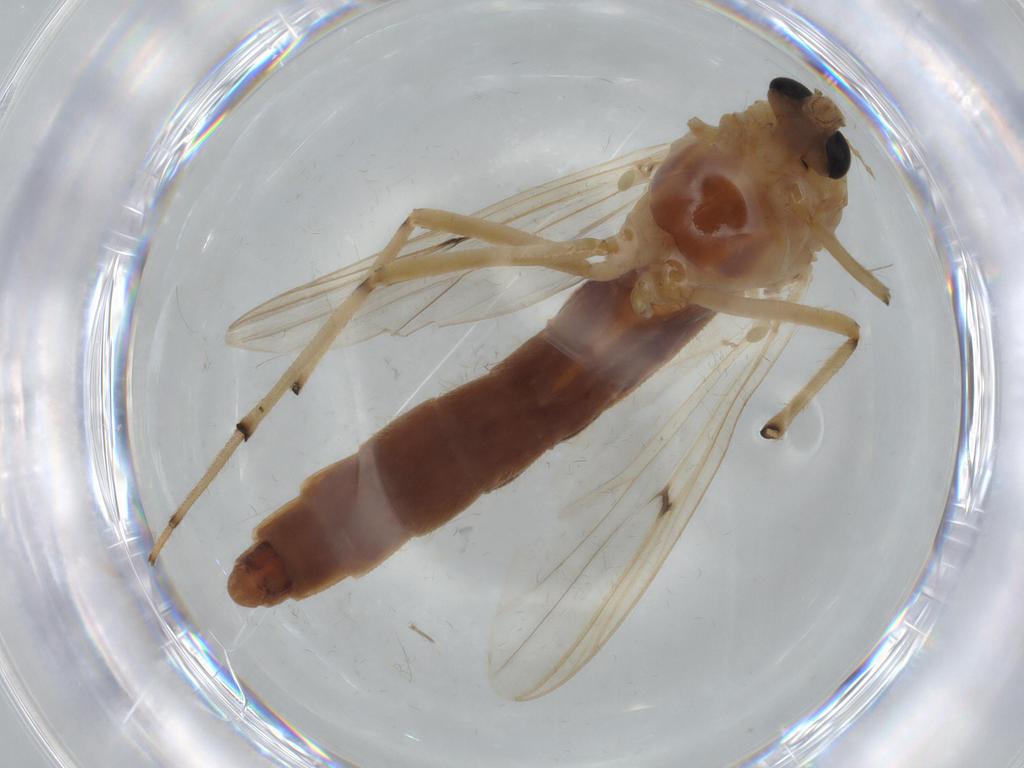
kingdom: Animalia
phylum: Arthropoda
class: Insecta
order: Diptera
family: Chironomidae
